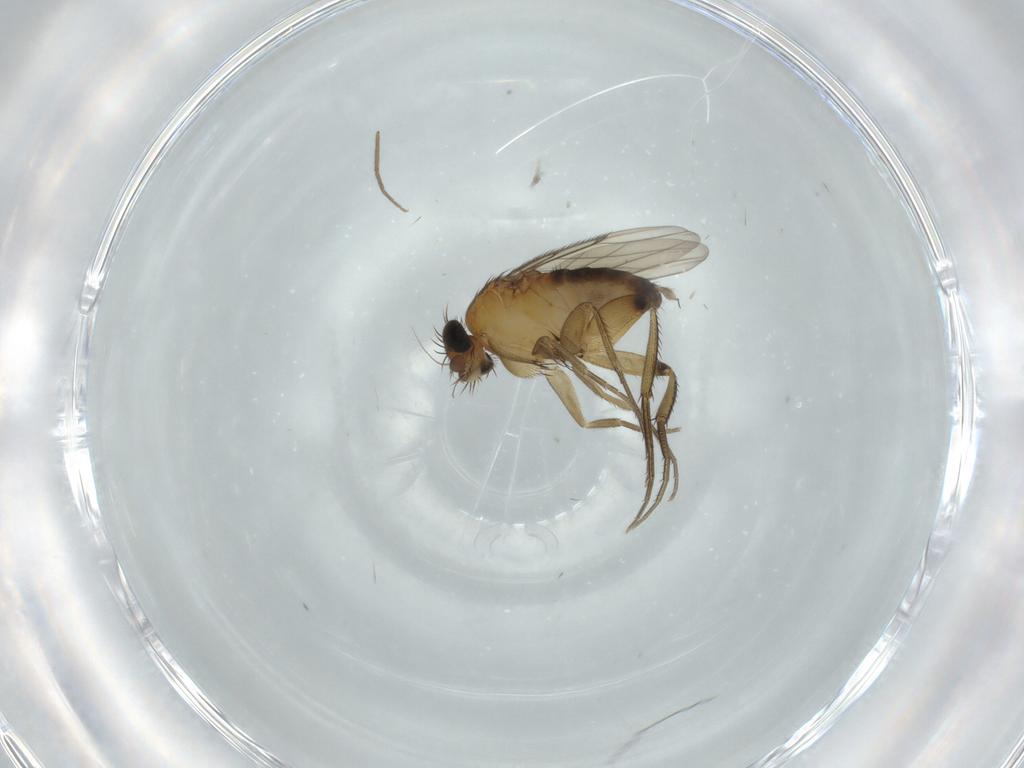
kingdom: Animalia
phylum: Arthropoda
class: Insecta
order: Diptera
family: Phoridae
